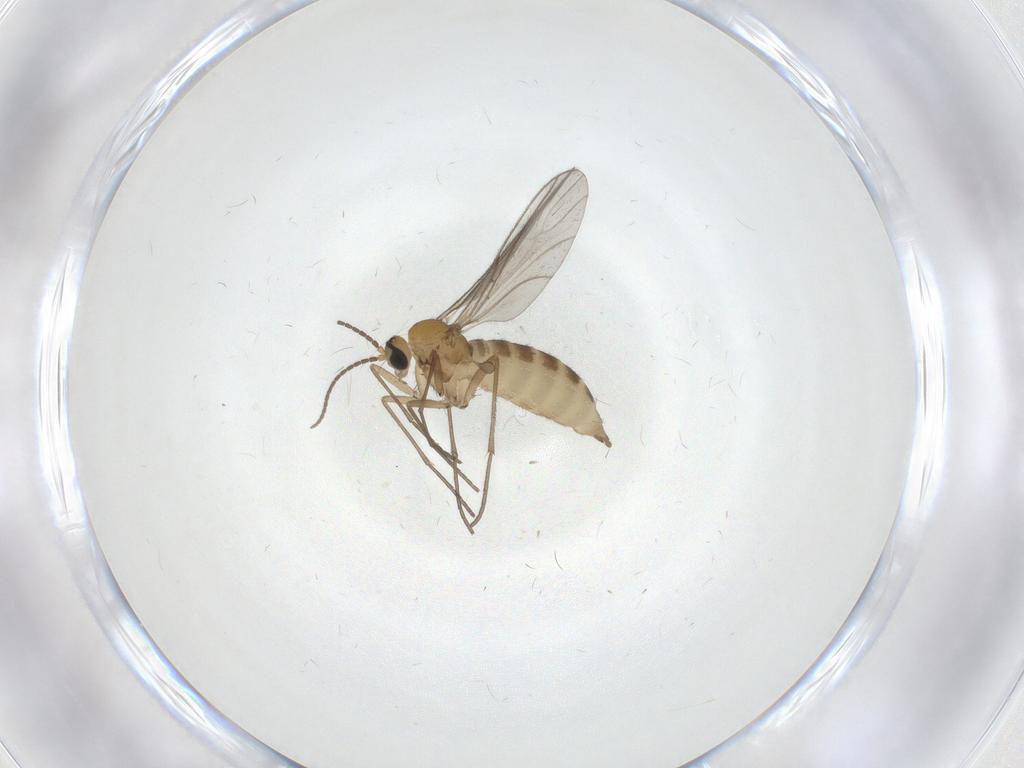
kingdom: Animalia
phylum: Arthropoda
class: Insecta
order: Diptera
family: Sciaridae
